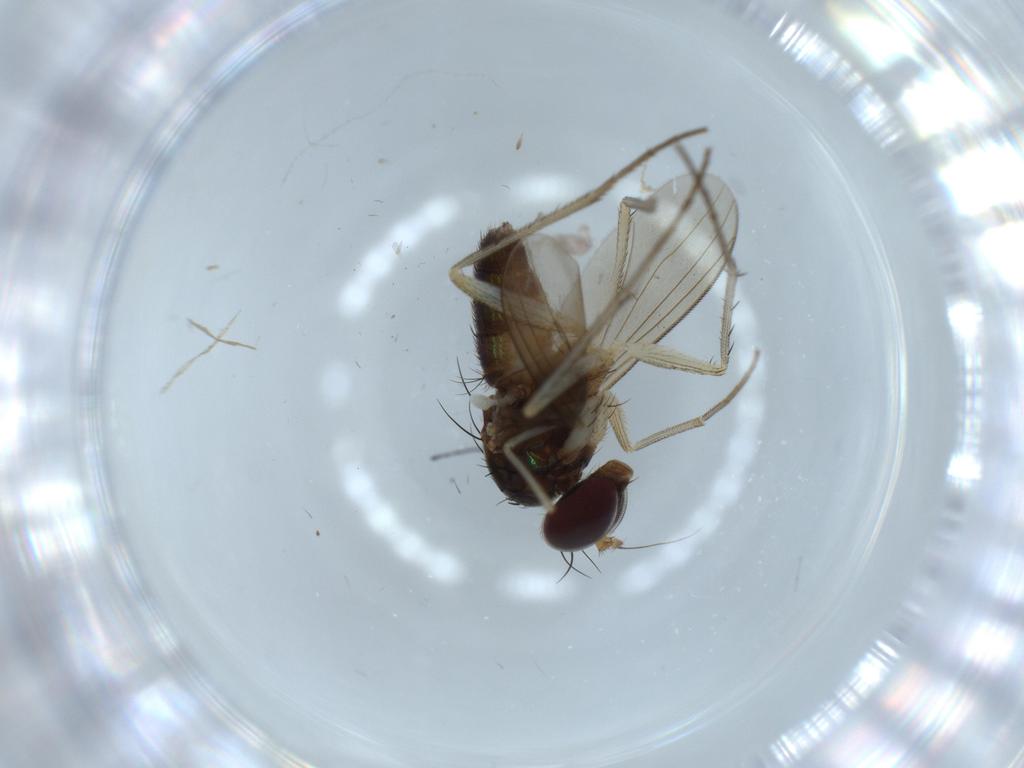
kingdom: Animalia
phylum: Arthropoda
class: Insecta
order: Diptera
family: Dolichopodidae
